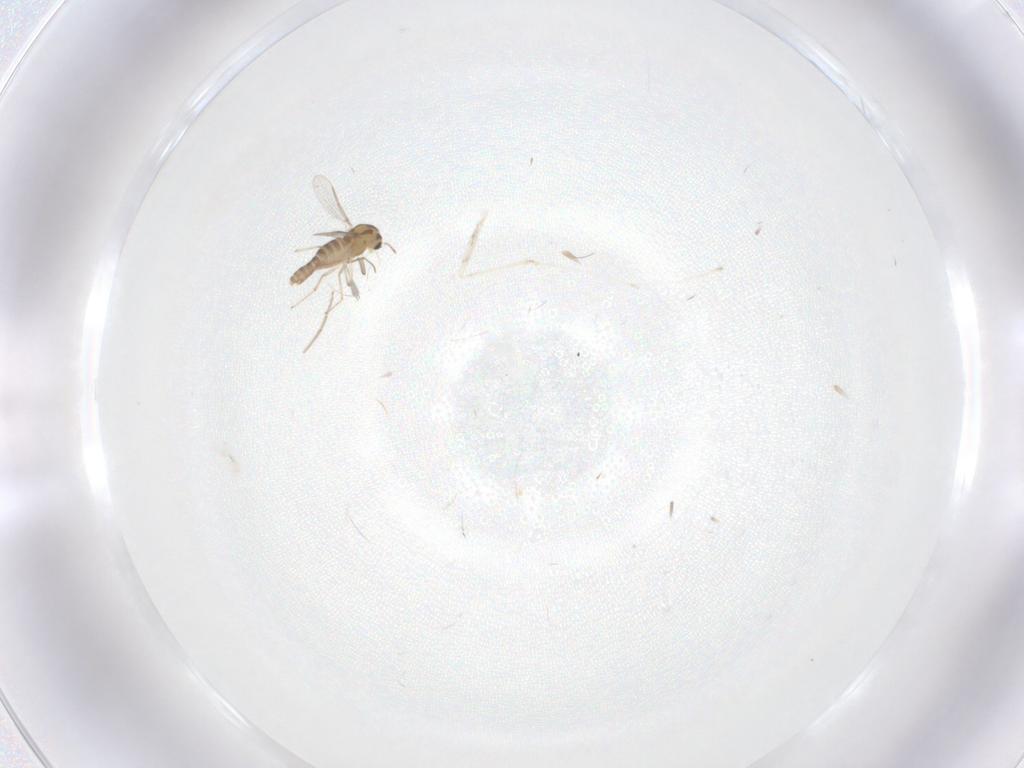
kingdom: Animalia
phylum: Arthropoda
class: Insecta
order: Diptera
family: Chironomidae
